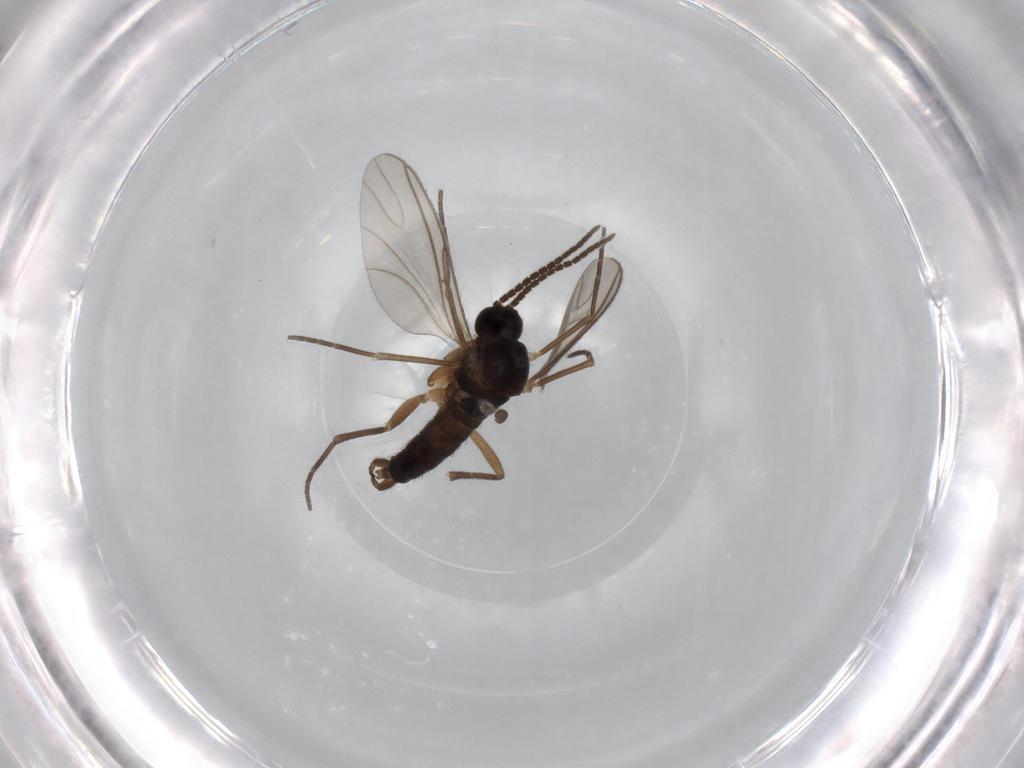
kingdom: Animalia
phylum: Arthropoda
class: Insecta
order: Diptera
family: Sciaridae
